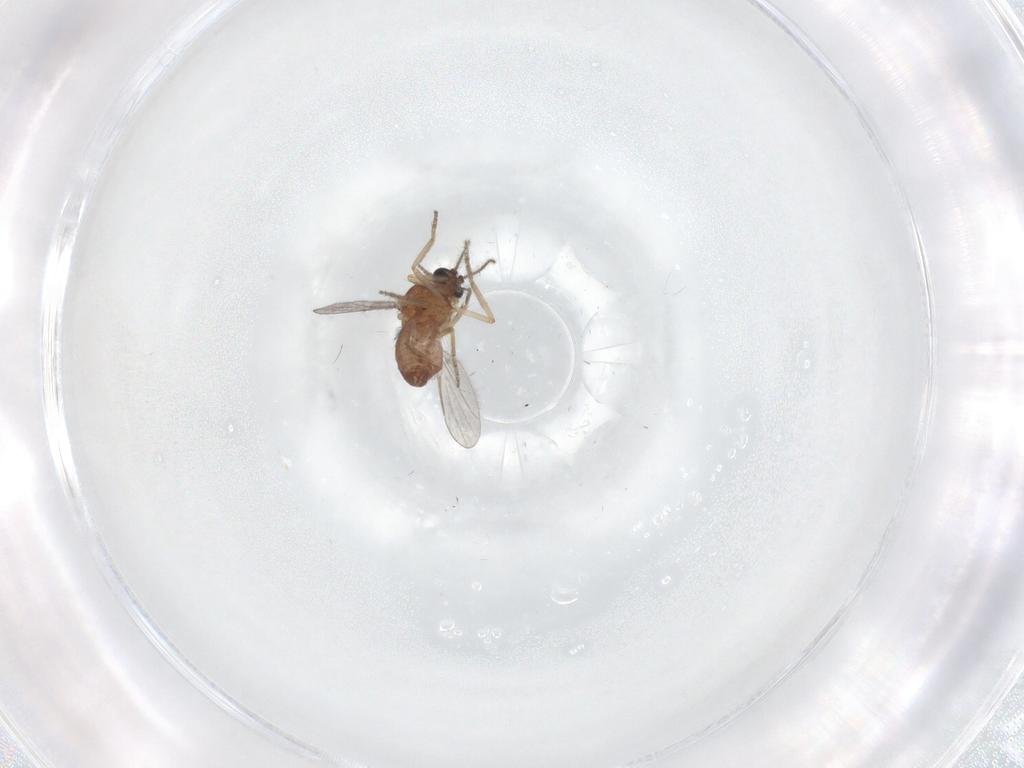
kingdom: Animalia
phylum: Arthropoda
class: Insecta
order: Diptera
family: Ceratopogonidae
